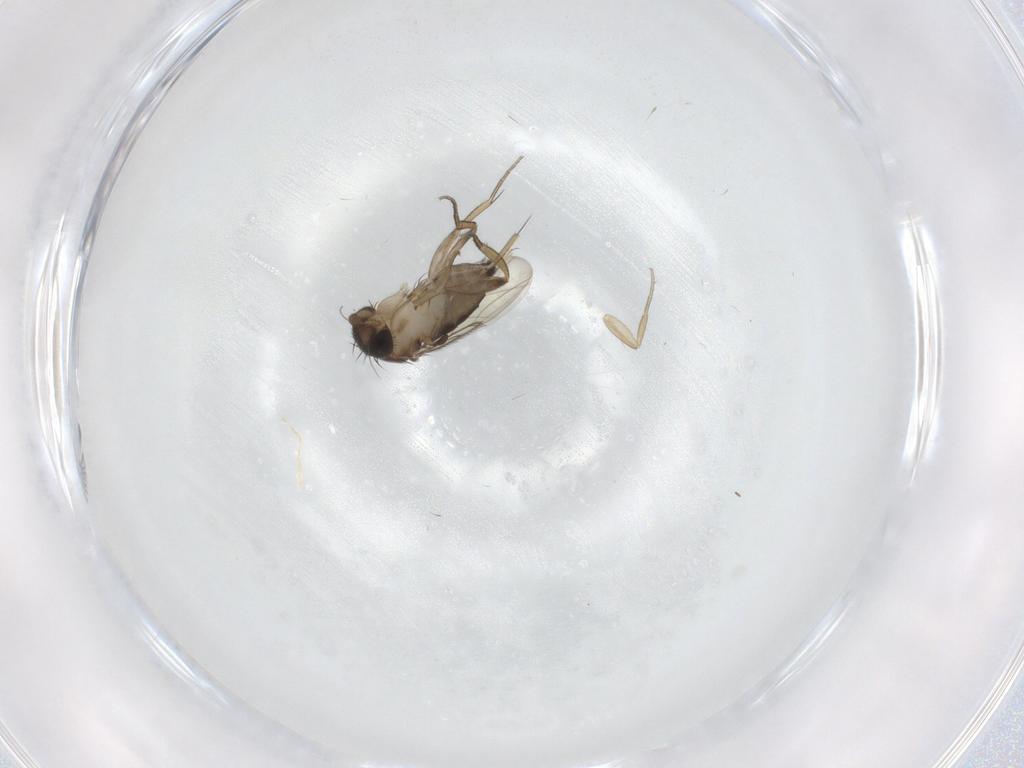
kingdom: Animalia
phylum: Arthropoda
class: Insecta
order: Diptera
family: Phoridae
